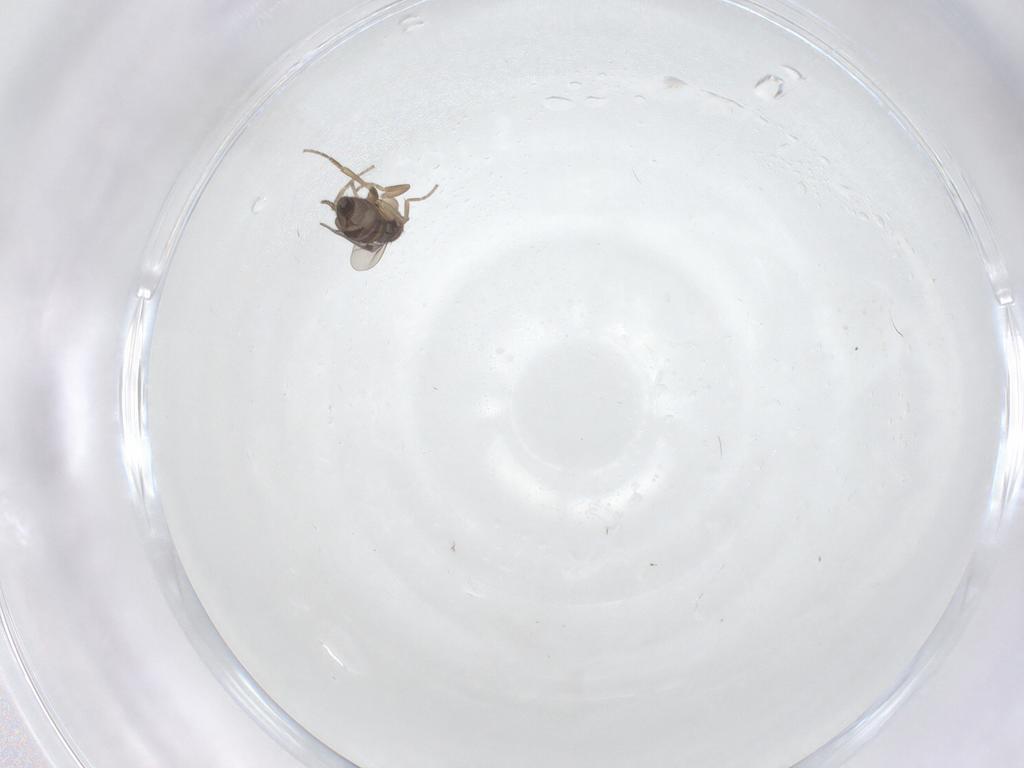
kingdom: Animalia
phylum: Arthropoda
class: Insecta
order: Diptera
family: Phoridae
